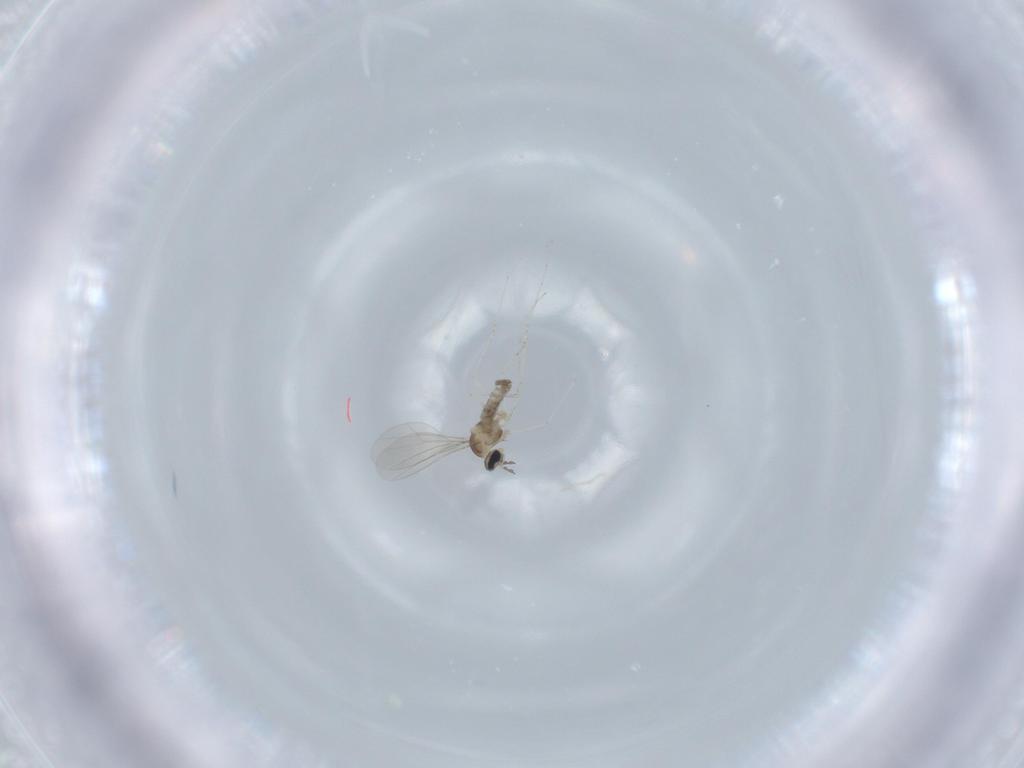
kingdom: Animalia
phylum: Arthropoda
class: Insecta
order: Diptera
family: Cecidomyiidae
